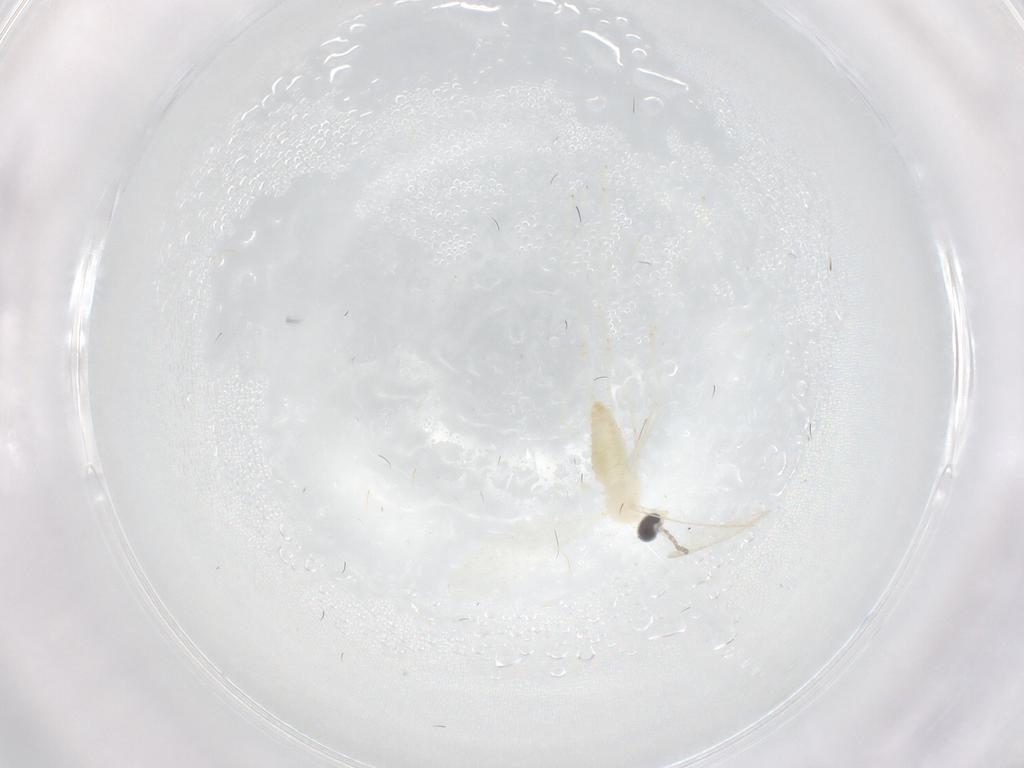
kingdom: Animalia
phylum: Arthropoda
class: Insecta
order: Diptera
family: Cecidomyiidae
